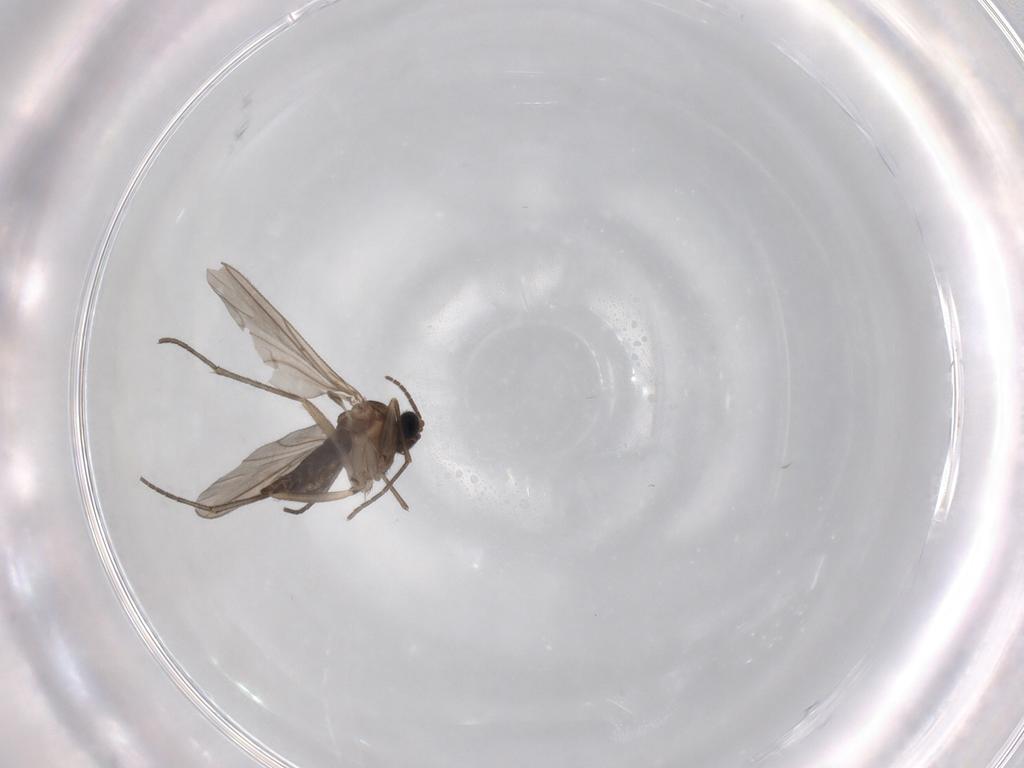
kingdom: Animalia
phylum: Arthropoda
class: Insecta
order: Diptera
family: Sciaridae
